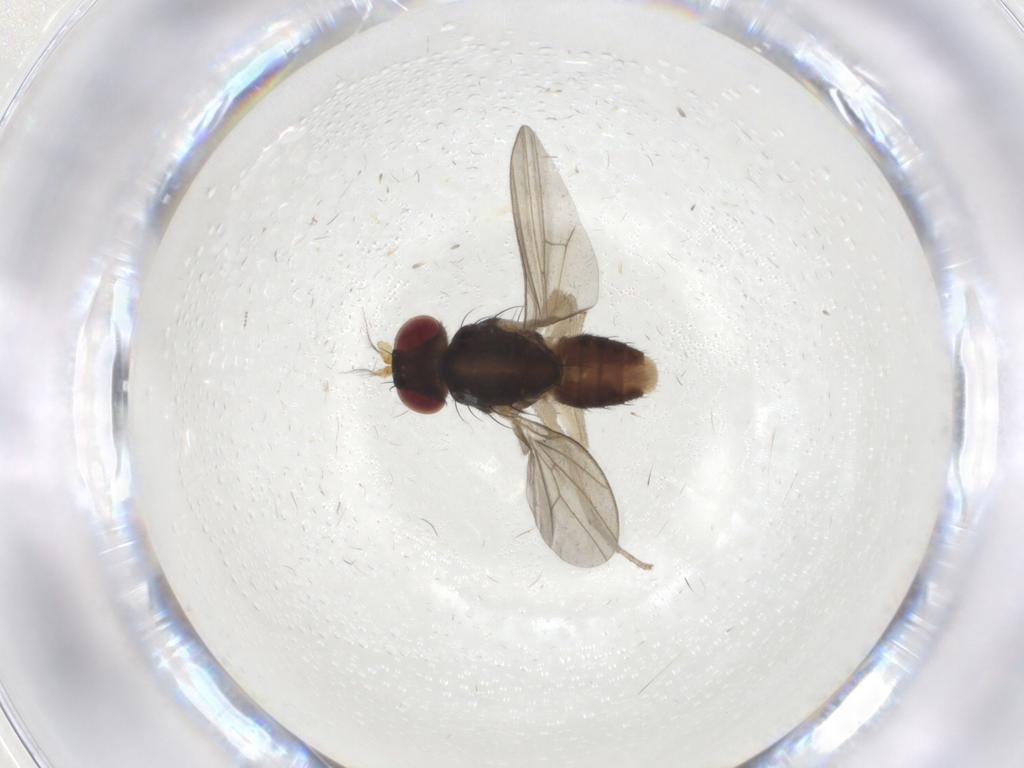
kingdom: Animalia
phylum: Arthropoda
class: Insecta
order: Diptera
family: Lauxaniidae
